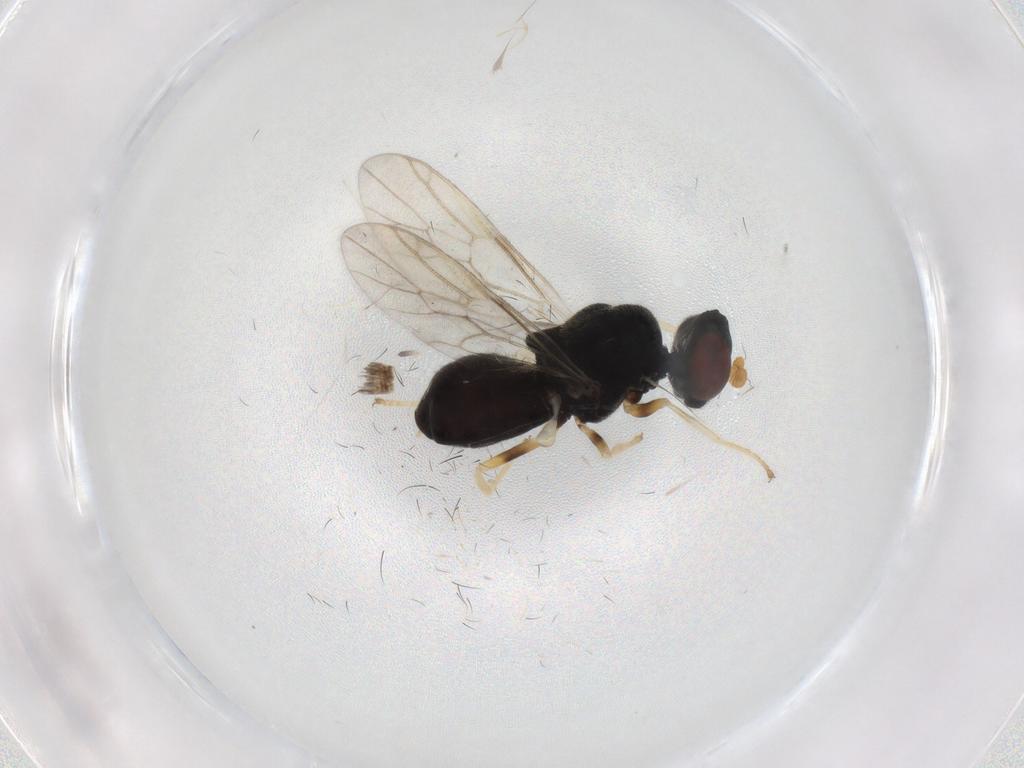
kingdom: Animalia
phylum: Arthropoda
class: Insecta
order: Diptera
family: Stratiomyidae
